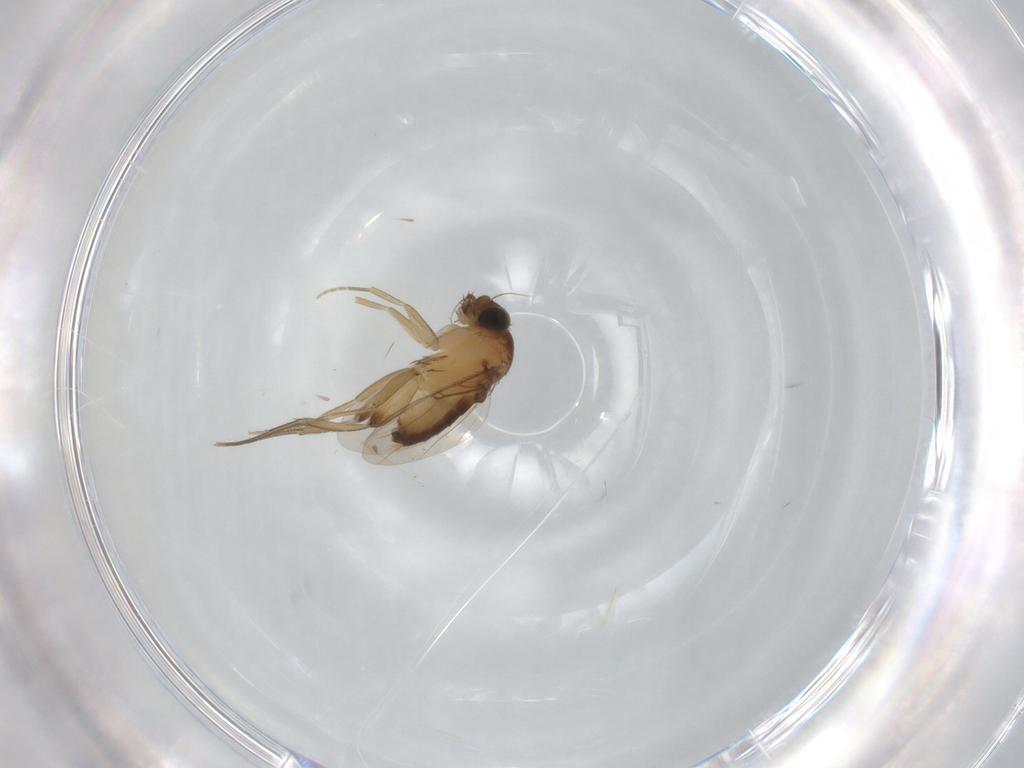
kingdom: Animalia
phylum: Arthropoda
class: Insecta
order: Diptera
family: Phoridae
